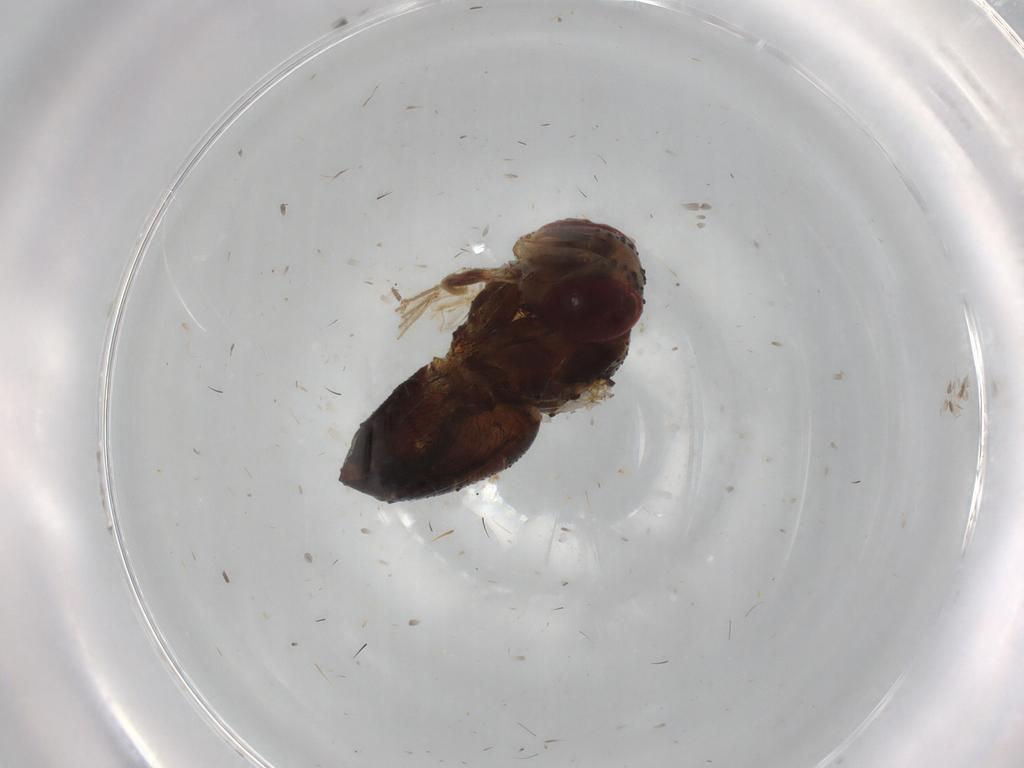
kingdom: Animalia
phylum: Arthropoda
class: Insecta
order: Diptera
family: Tachinidae
